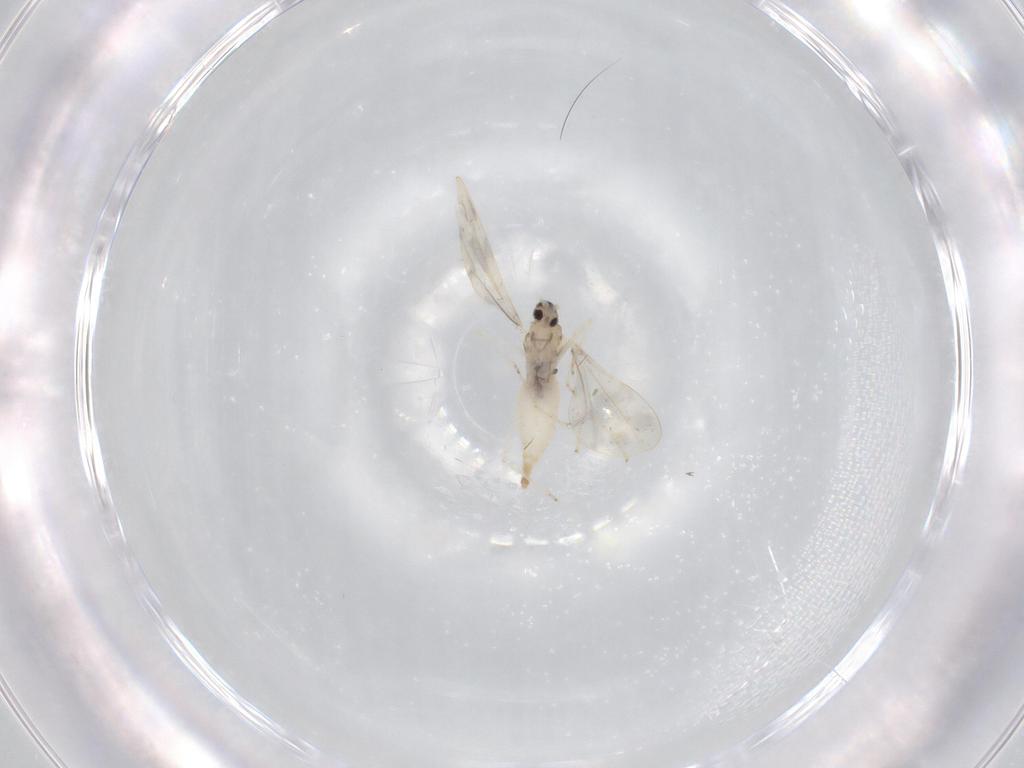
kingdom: Animalia
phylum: Arthropoda
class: Insecta
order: Diptera
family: Cecidomyiidae
